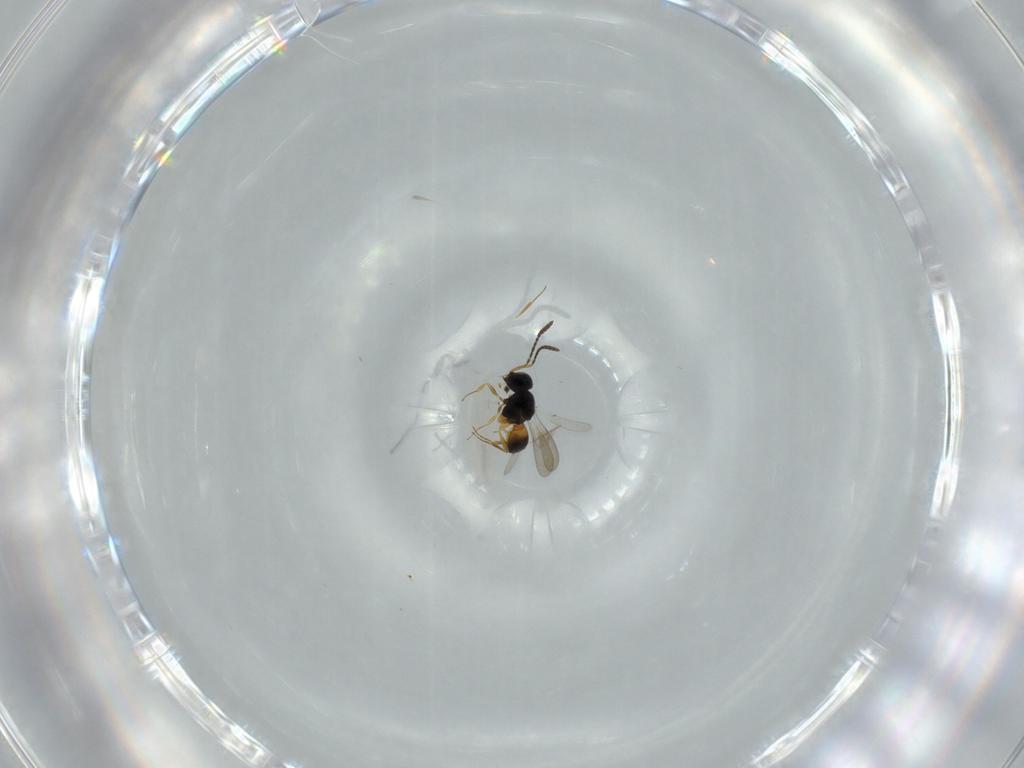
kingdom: Animalia
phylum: Arthropoda
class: Insecta
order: Hymenoptera
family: Scelionidae
